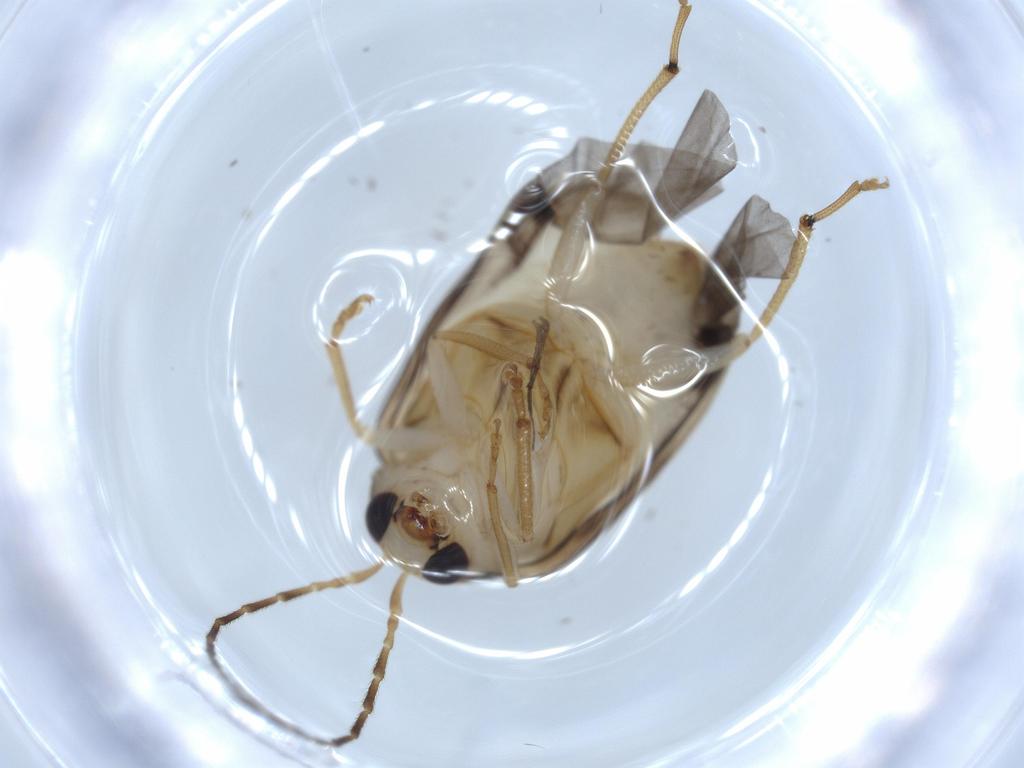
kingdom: Animalia
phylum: Arthropoda
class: Insecta
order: Coleoptera
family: Chrysomelidae
